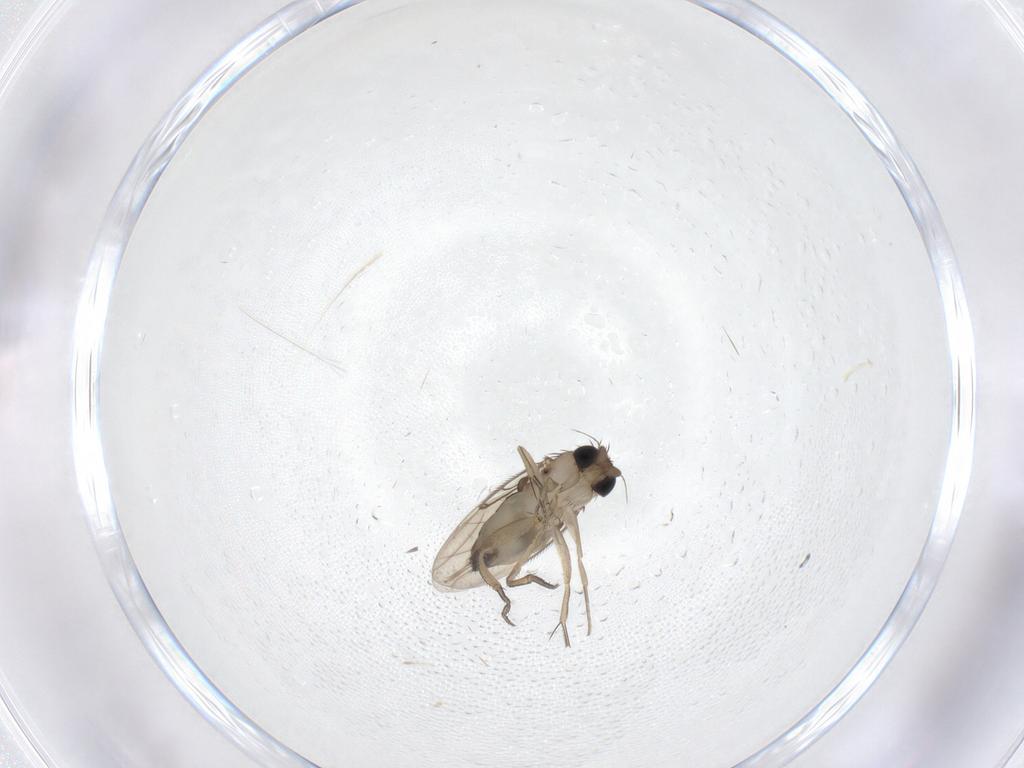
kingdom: Animalia
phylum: Arthropoda
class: Insecta
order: Diptera
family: Phoridae
